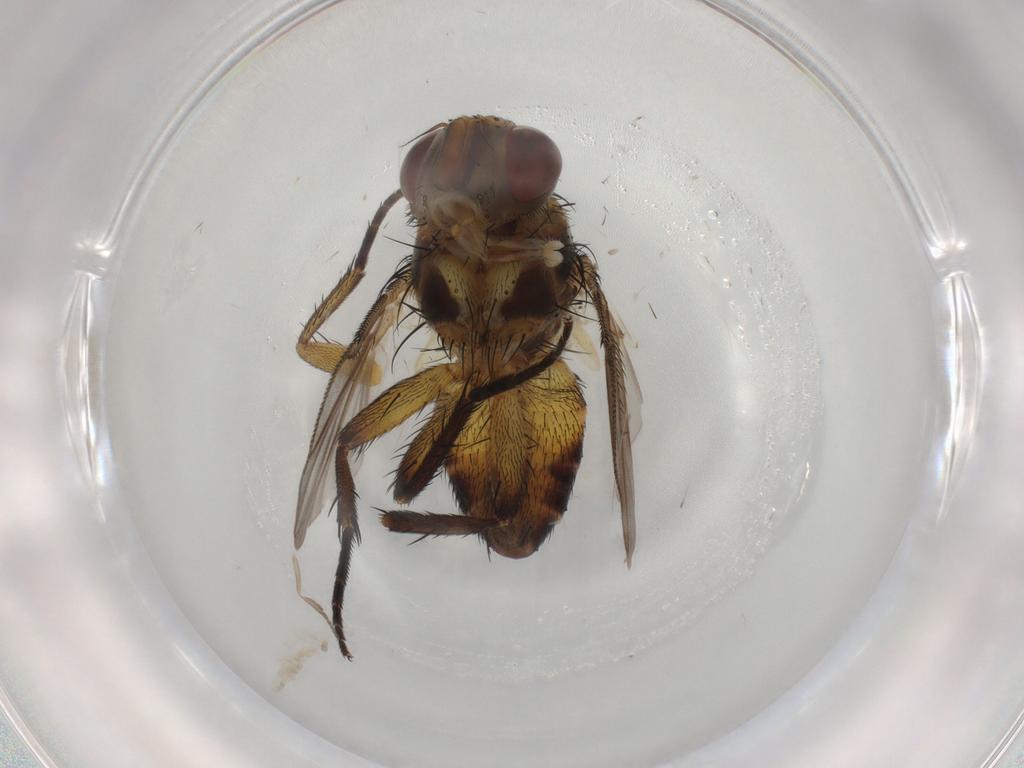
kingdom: Animalia
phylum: Arthropoda
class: Insecta
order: Diptera
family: Psychodidae
